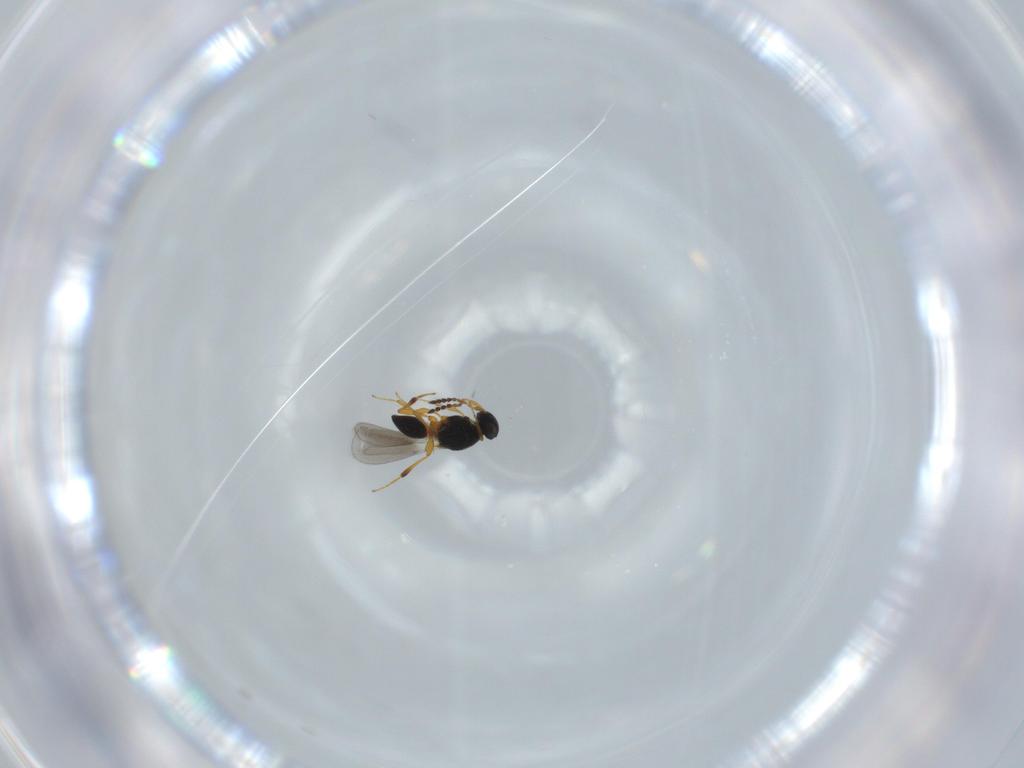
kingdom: Animalia
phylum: Arthropoda
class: Insecta
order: Hymenoptera
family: Platygastridae
